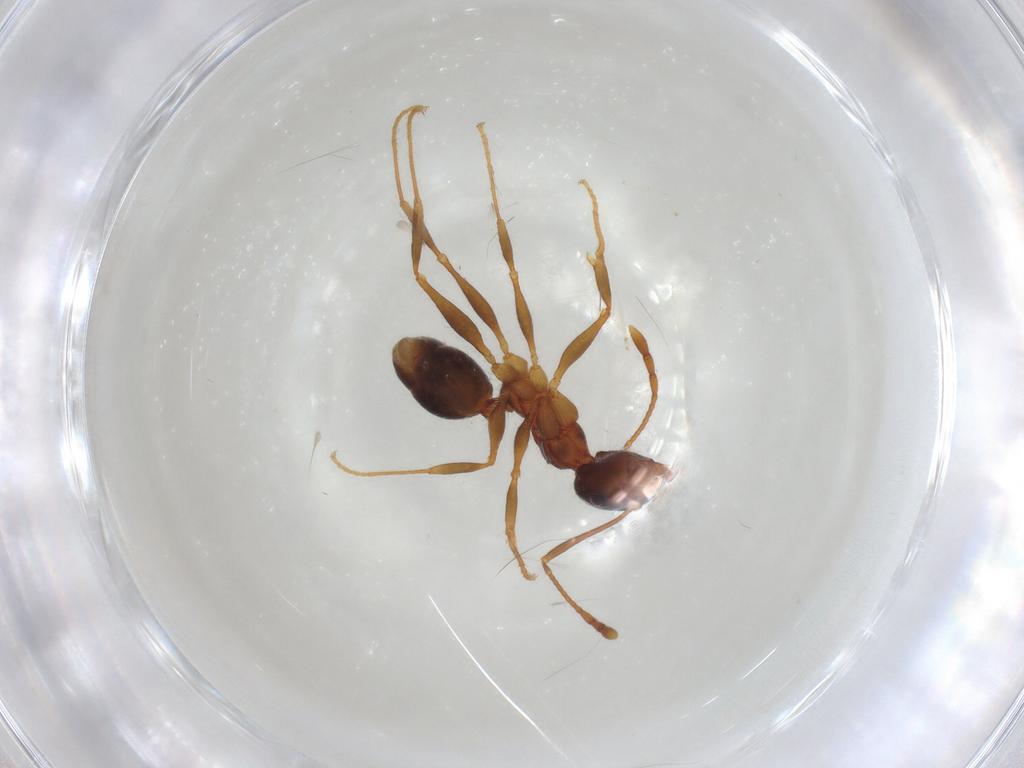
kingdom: Animalia
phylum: Arthropoda
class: Insecta
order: Hymenoptera
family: Formicidae
